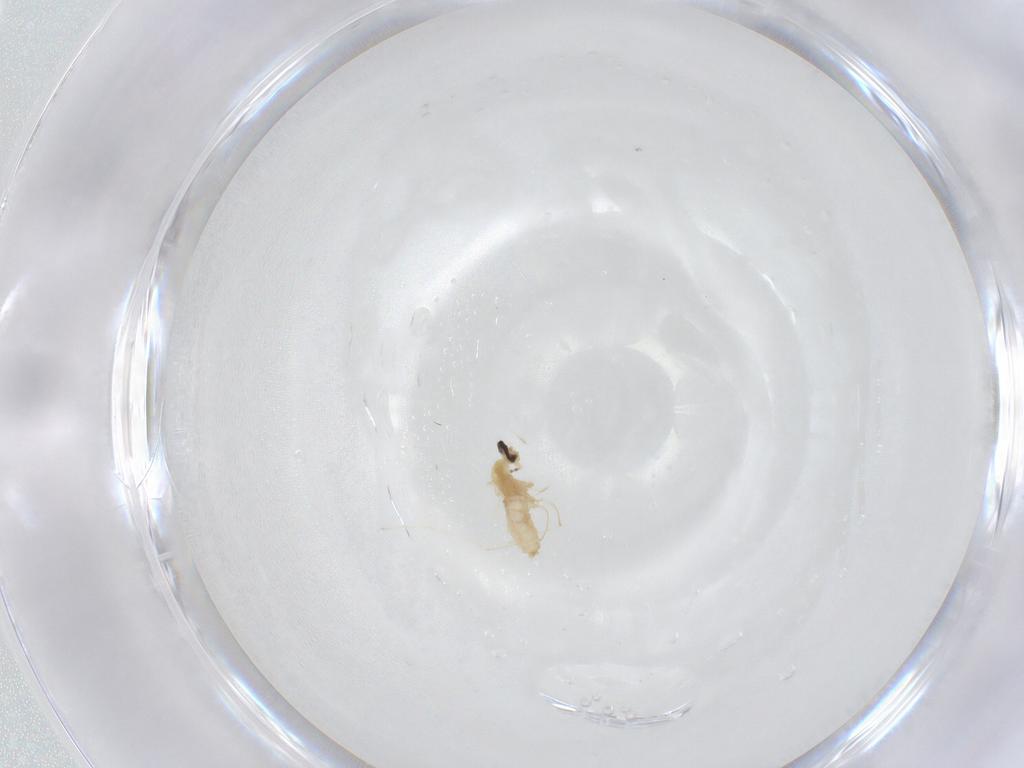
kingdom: Animalia
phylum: Arthropoda
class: Insecta
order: Diptera
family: Cecidomyiidae
